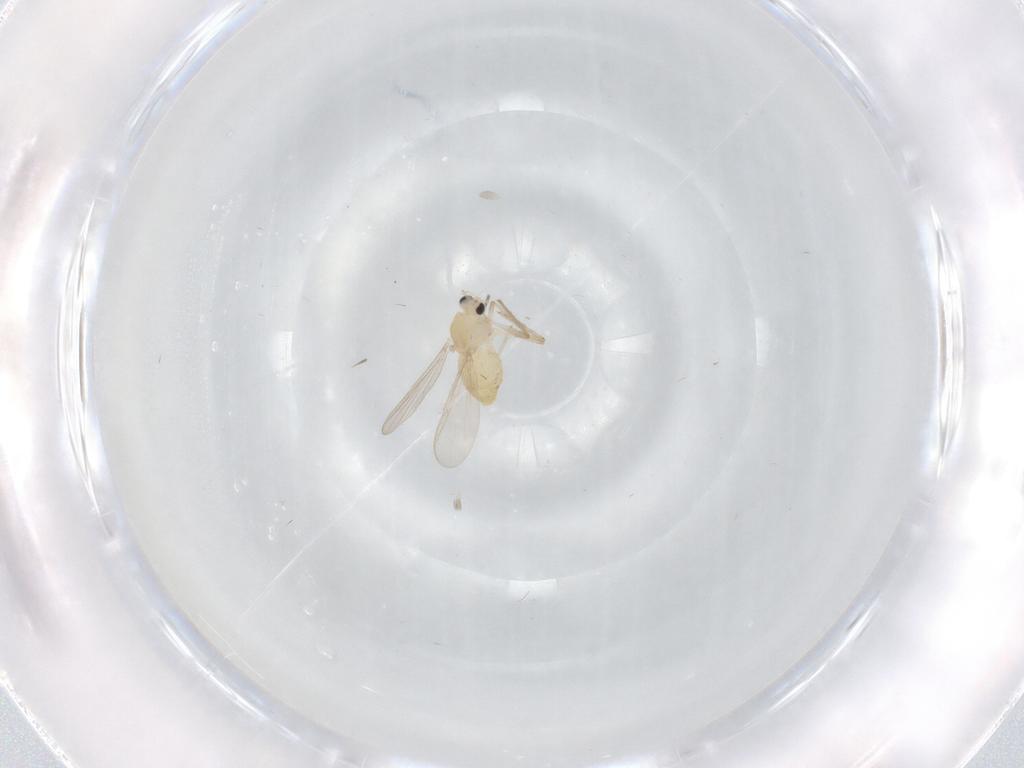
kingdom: Animalia
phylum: Arthropoda
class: Insecta
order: Diptera
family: Chironomidae
